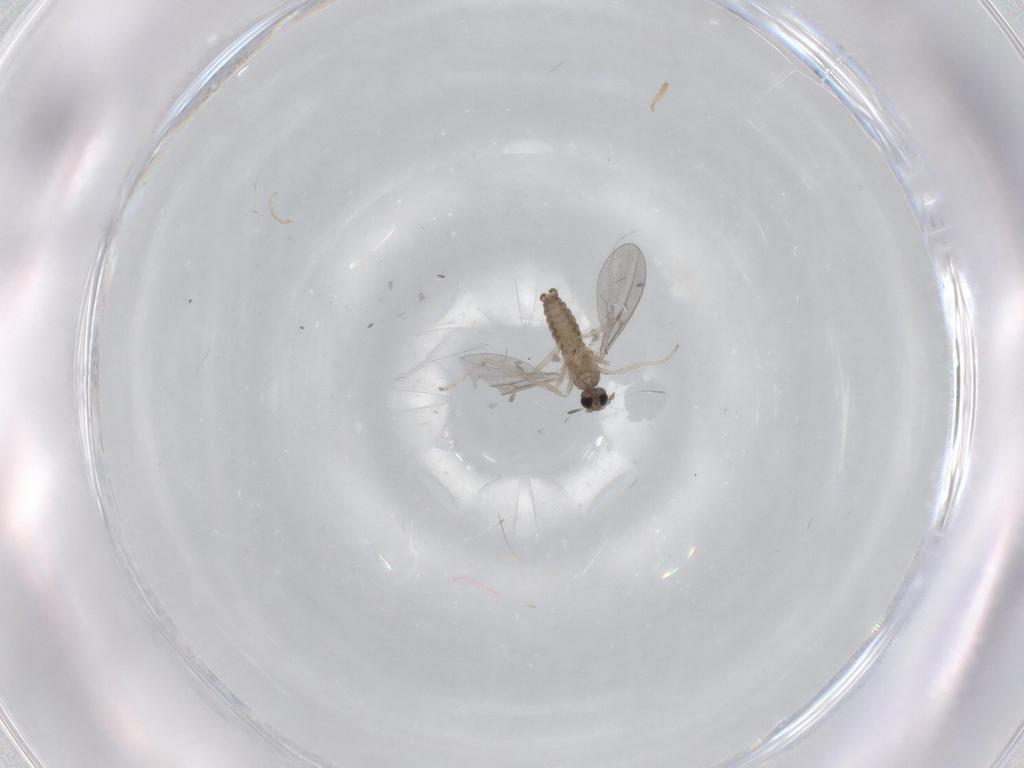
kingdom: Animalia
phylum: Arthropoda
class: Insecta
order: Diptera
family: Cecidomyiidae
